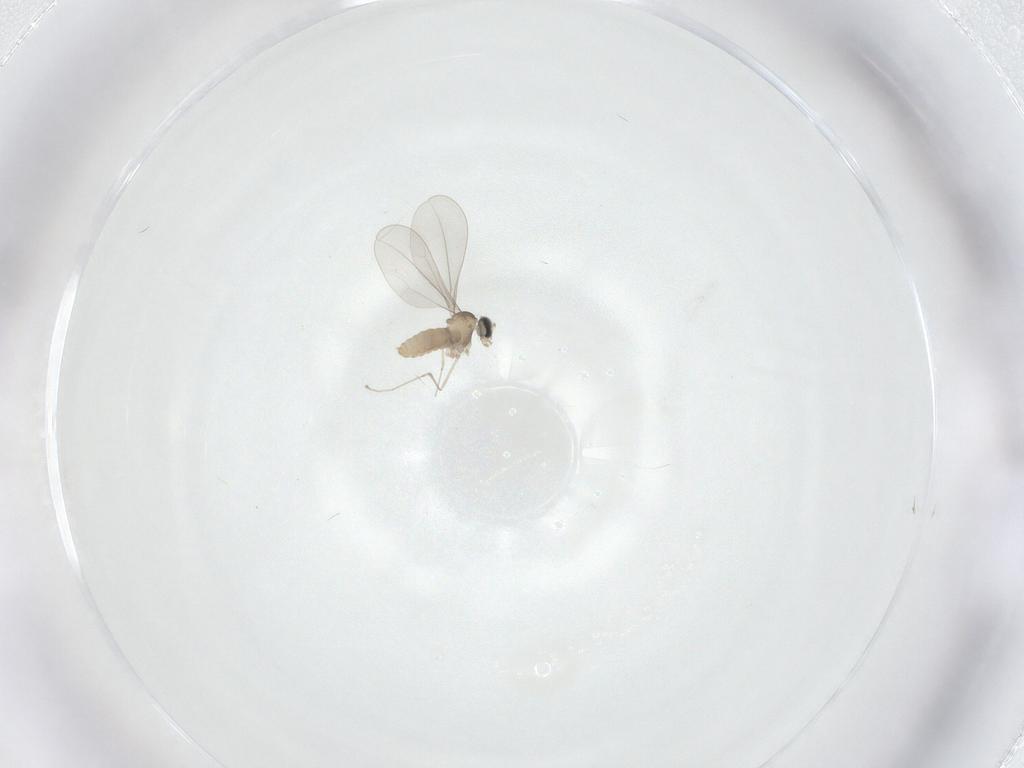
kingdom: Animalia
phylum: Arthropoda
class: Insecta
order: Diptera
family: Cecidomyiidae
